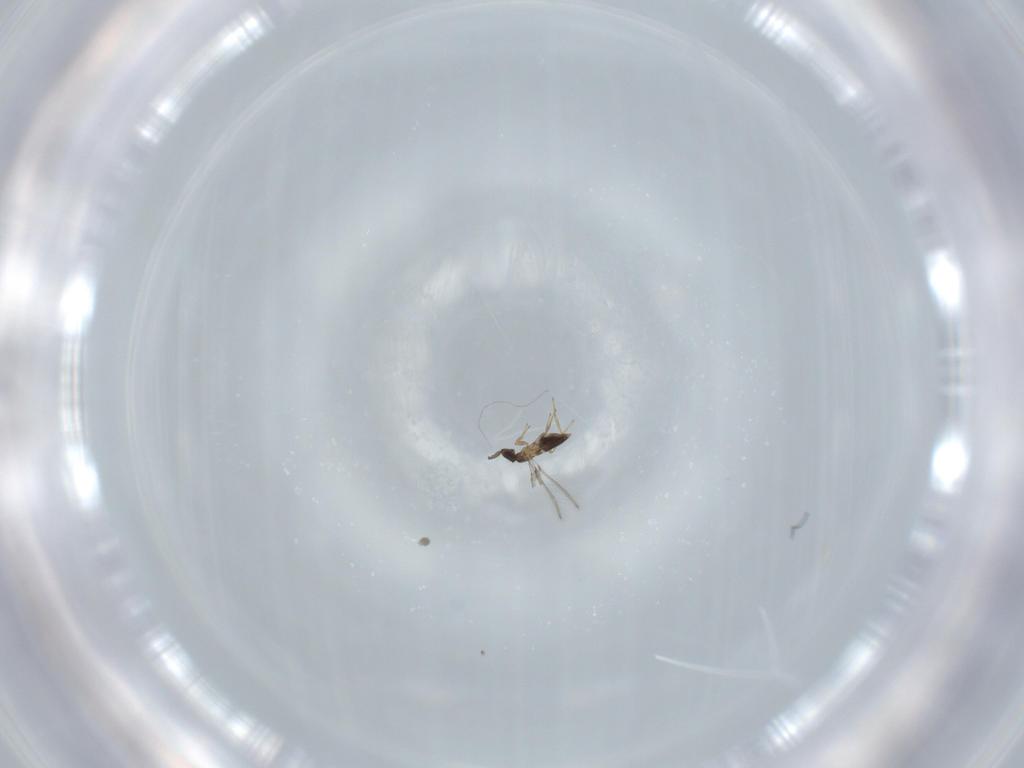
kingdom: Animalia
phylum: Arthropoda
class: Insecta
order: Hymenoptera
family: Mymaridae
